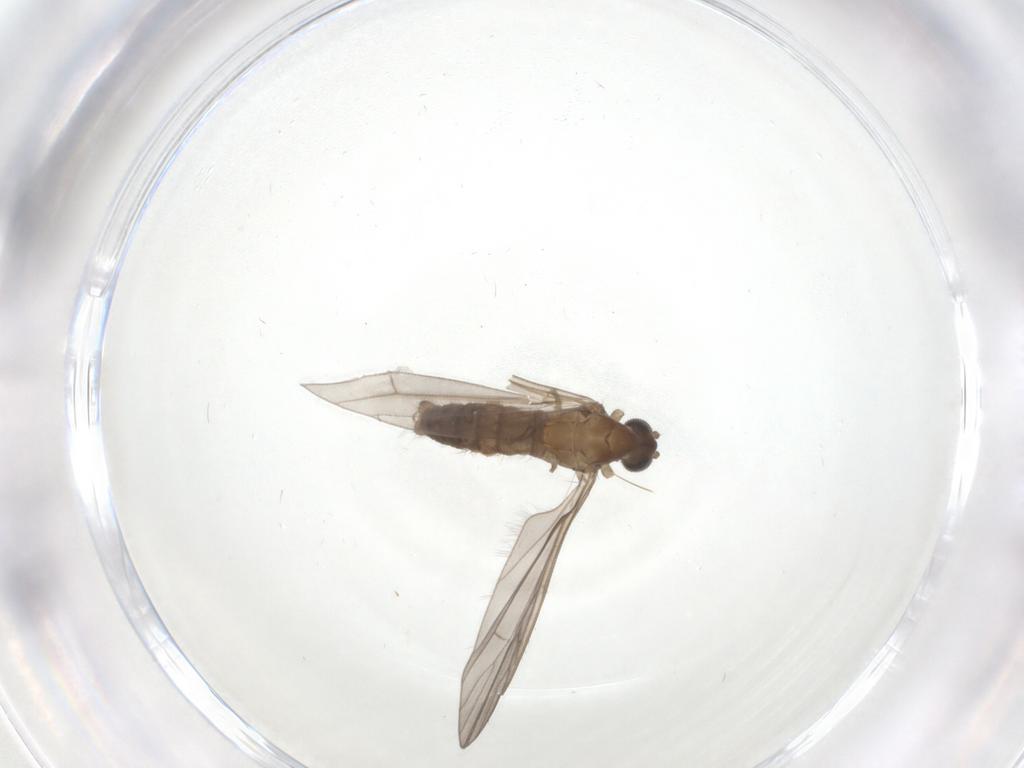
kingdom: Animalia
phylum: Arthropoda
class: Insecta
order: Diptera
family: Limoniidae
